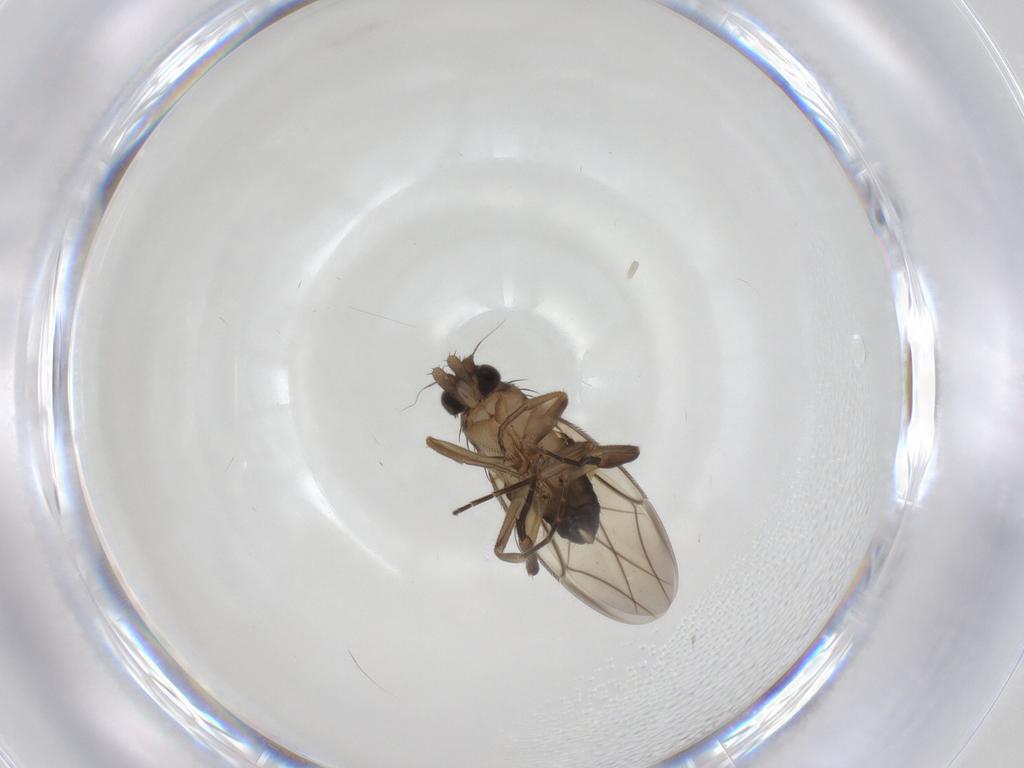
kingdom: Animalia
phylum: Arthropoda
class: Insecta
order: Diptera
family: Phoridae
